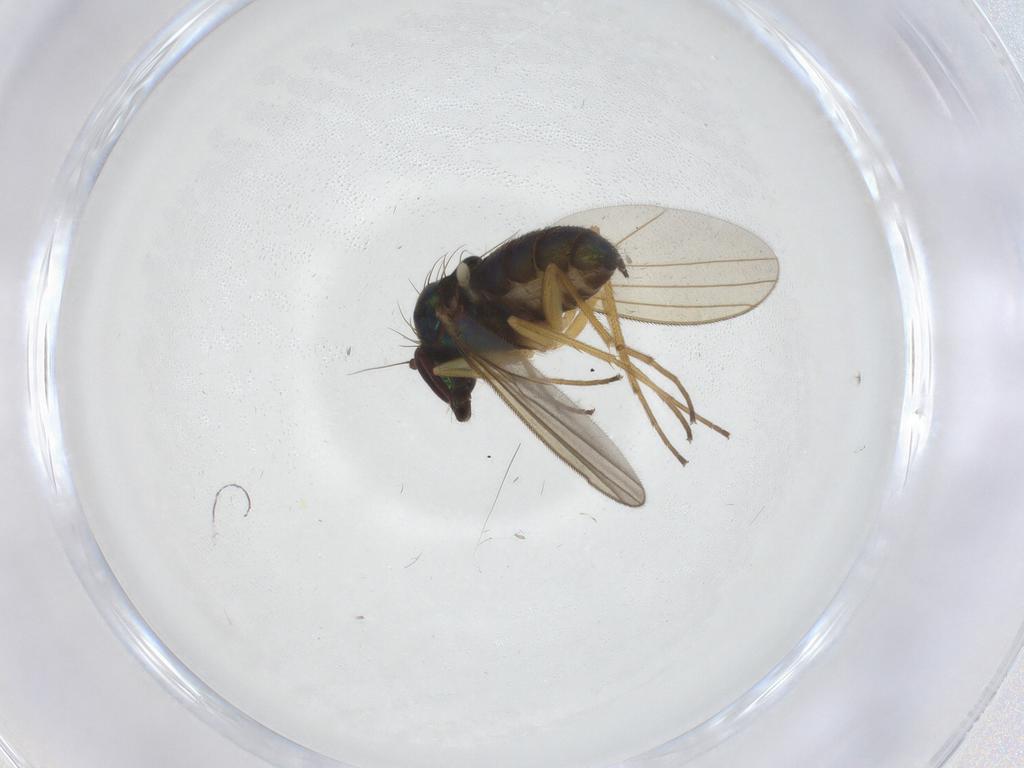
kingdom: Animalia
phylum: Arthropoda
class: Insecta
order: Diptera
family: Dolichopodidae
